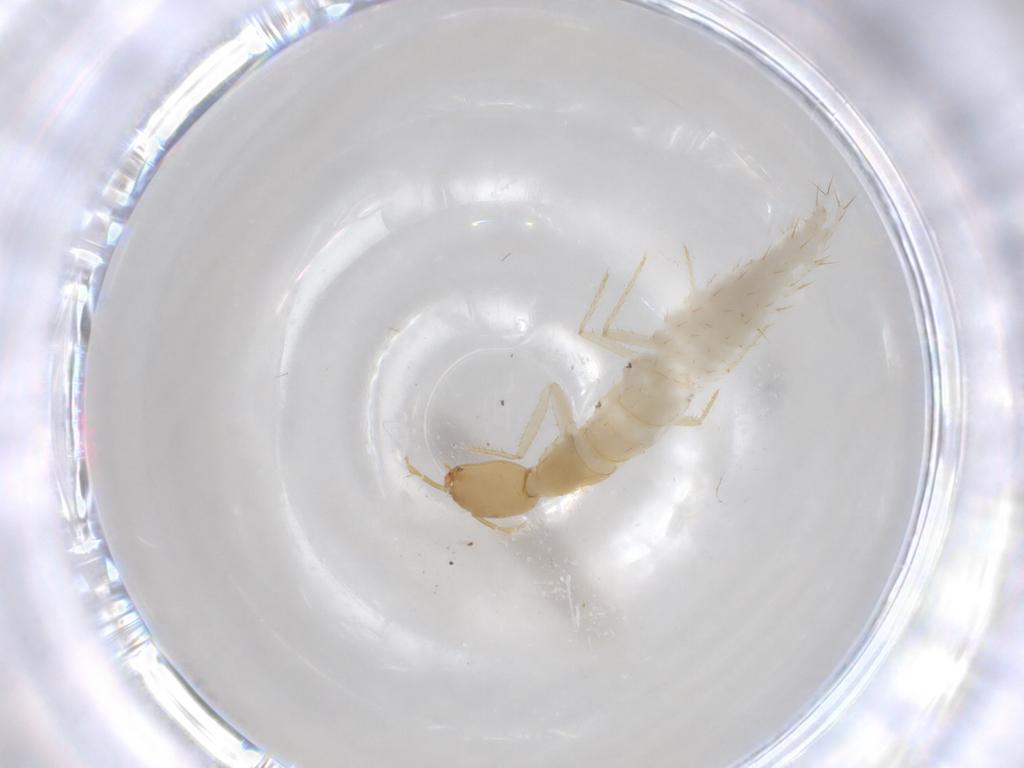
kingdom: Animalia
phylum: Arthropoda
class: Insecta
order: Coleoptera
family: Staphylinidae
